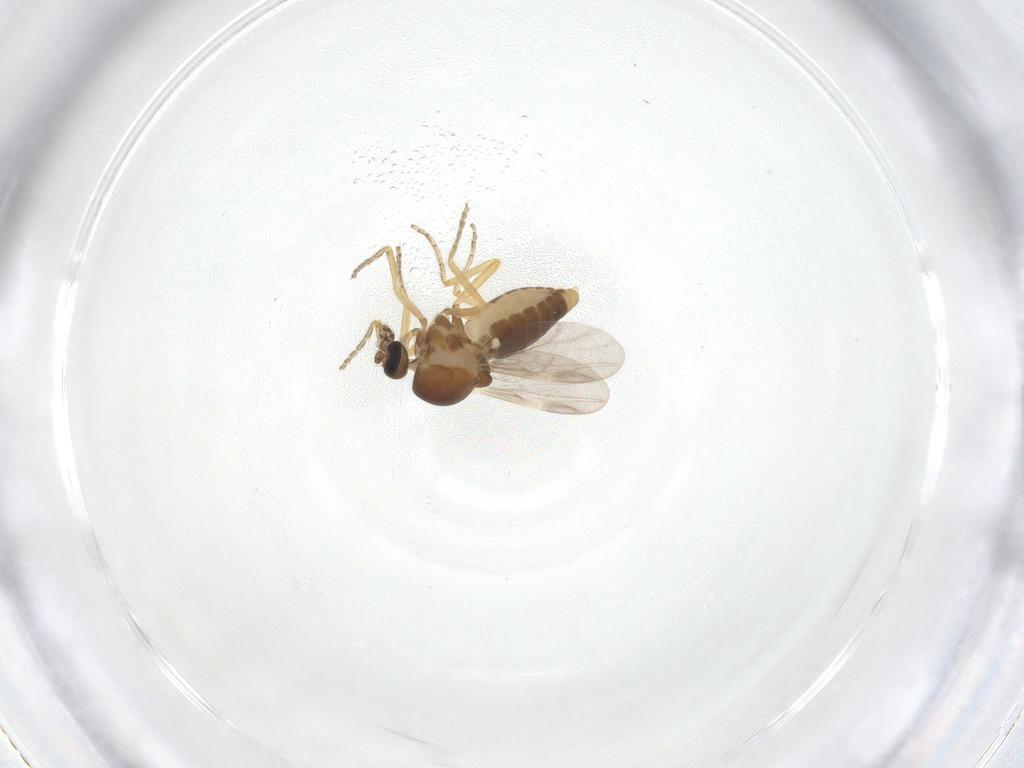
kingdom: Animalia
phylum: Arthropoda
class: Insecta
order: Diptera
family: Ceratopogonidae
